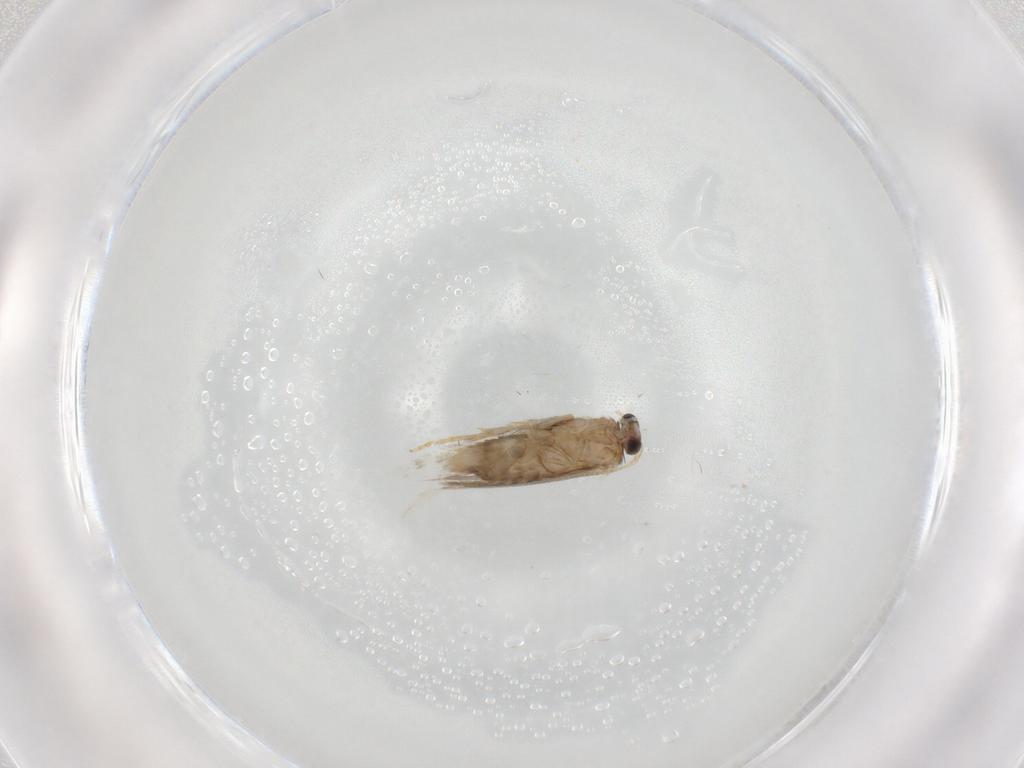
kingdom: Animalia
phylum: Arthropoda
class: Insecta
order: Lepidoptera
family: Nepticulidae
